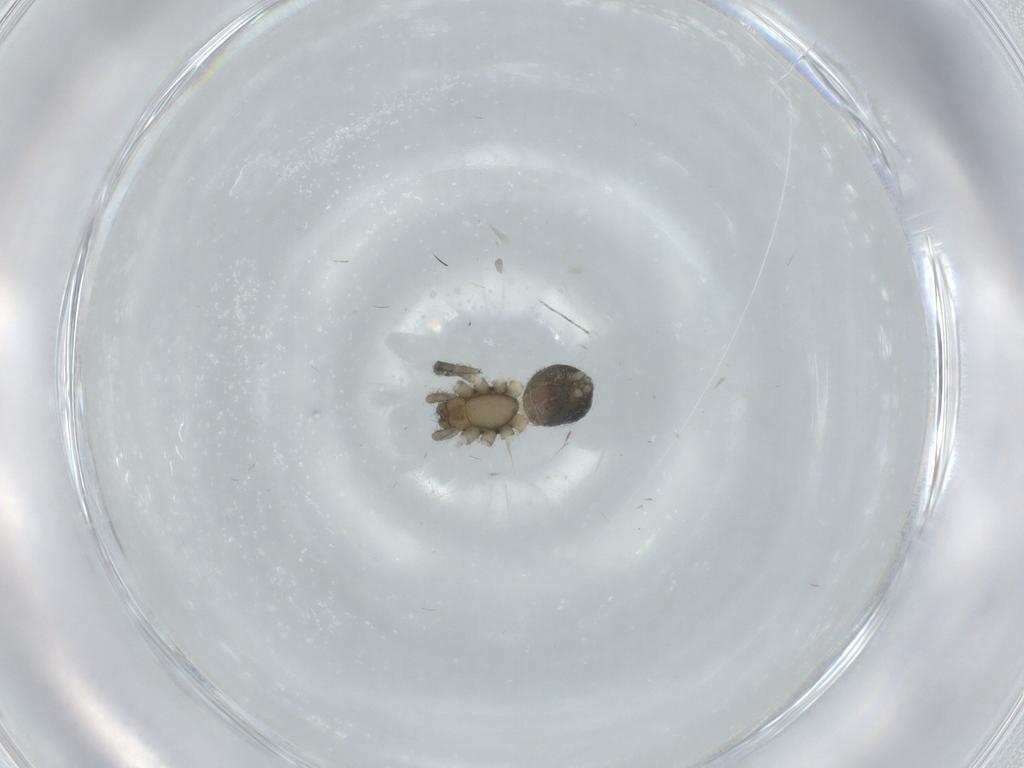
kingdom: Animalia
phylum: Arthropoda
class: Arachnida
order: Araneae
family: Gnaphosidae
